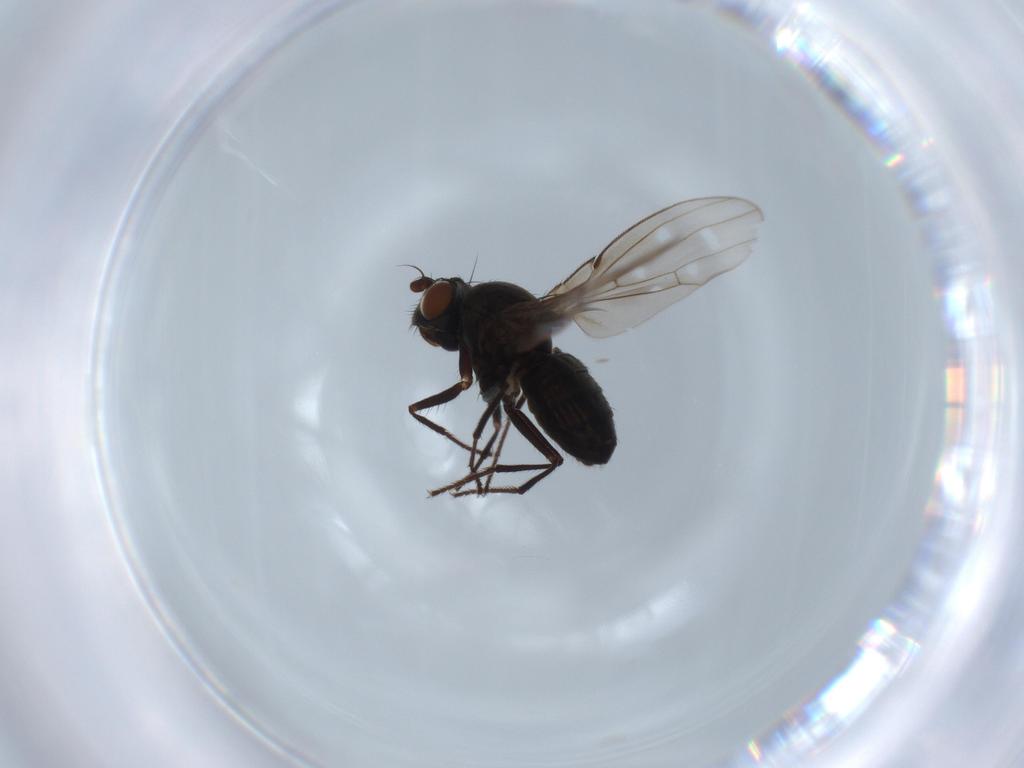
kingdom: Animalia
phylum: Arthropoda
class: Insecta
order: Diptera
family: Ephydridae
